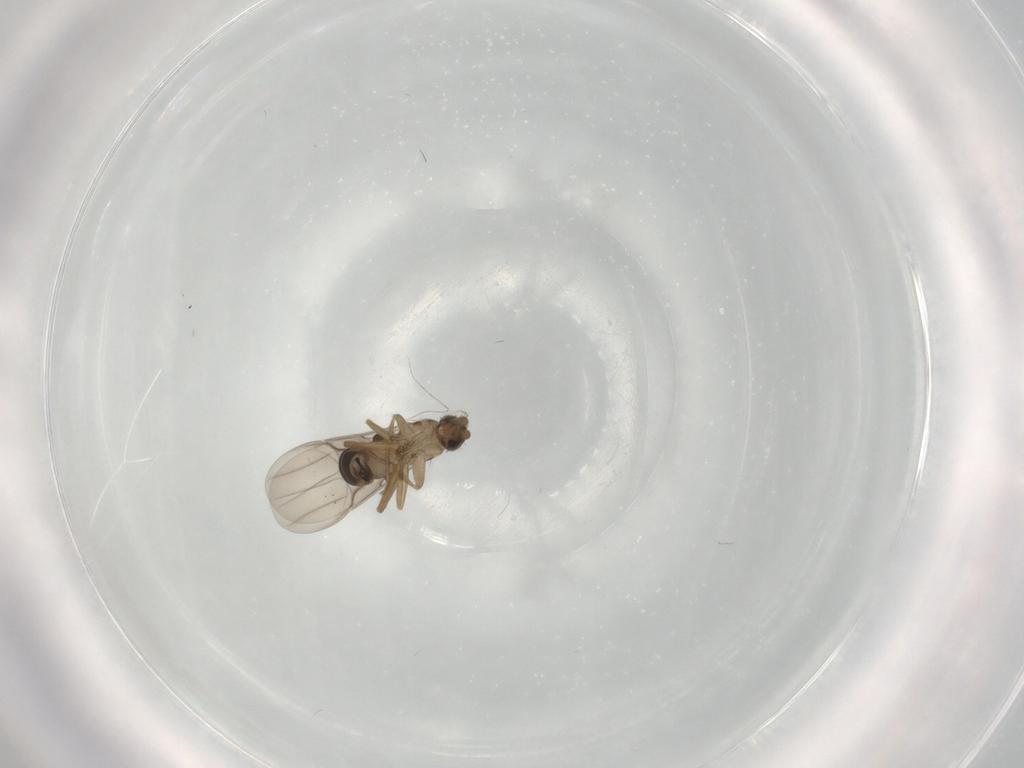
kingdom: Animalia
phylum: Arthropoda
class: Insecta
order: Diptera
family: Phoridae
